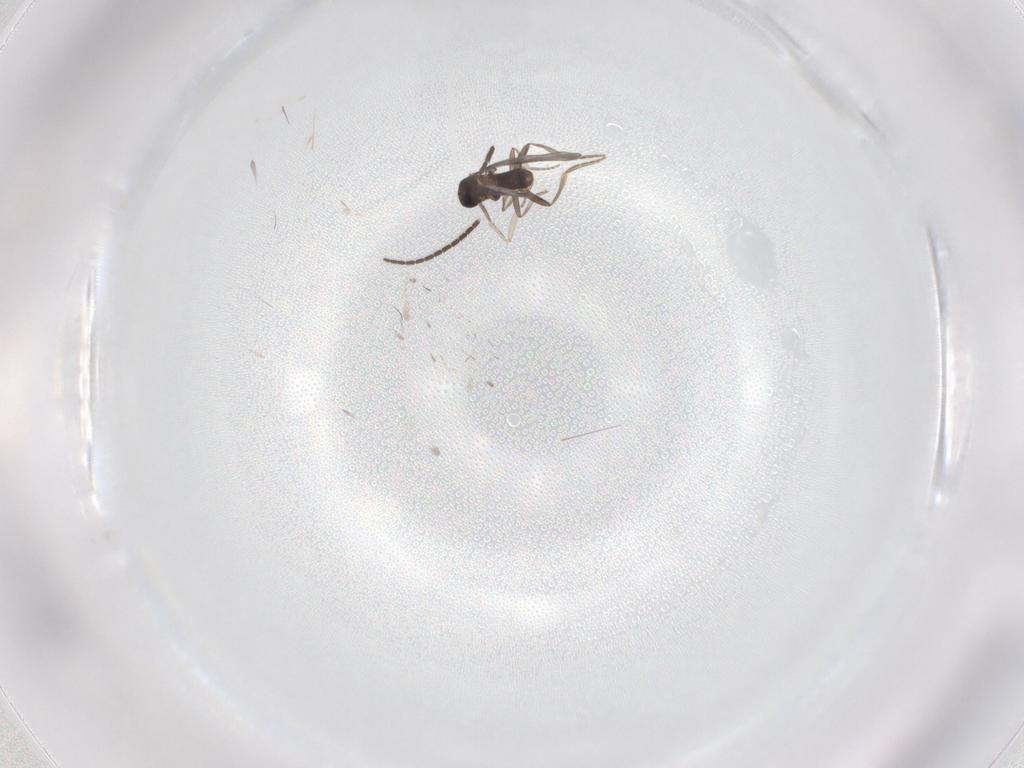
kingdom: Animalia
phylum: Arthropoda
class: Insecta
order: Diptera
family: Sciaridae
